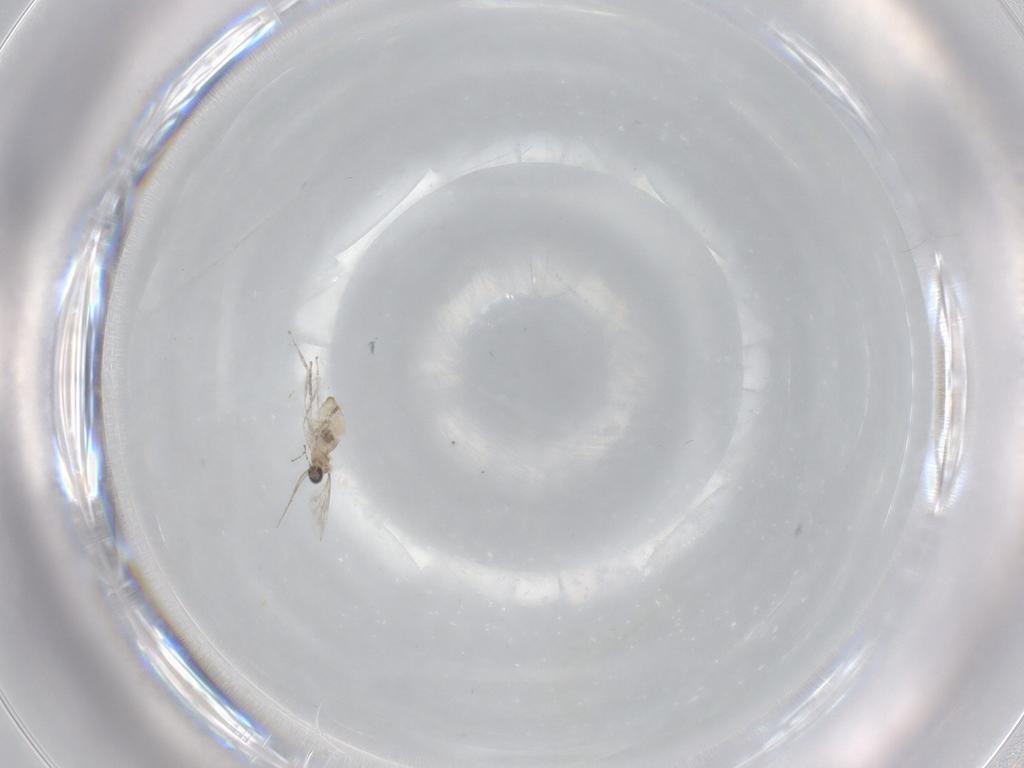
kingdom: Animalia
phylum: Arthropoda
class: Insecta
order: Diptera
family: Cecidomyiidae
